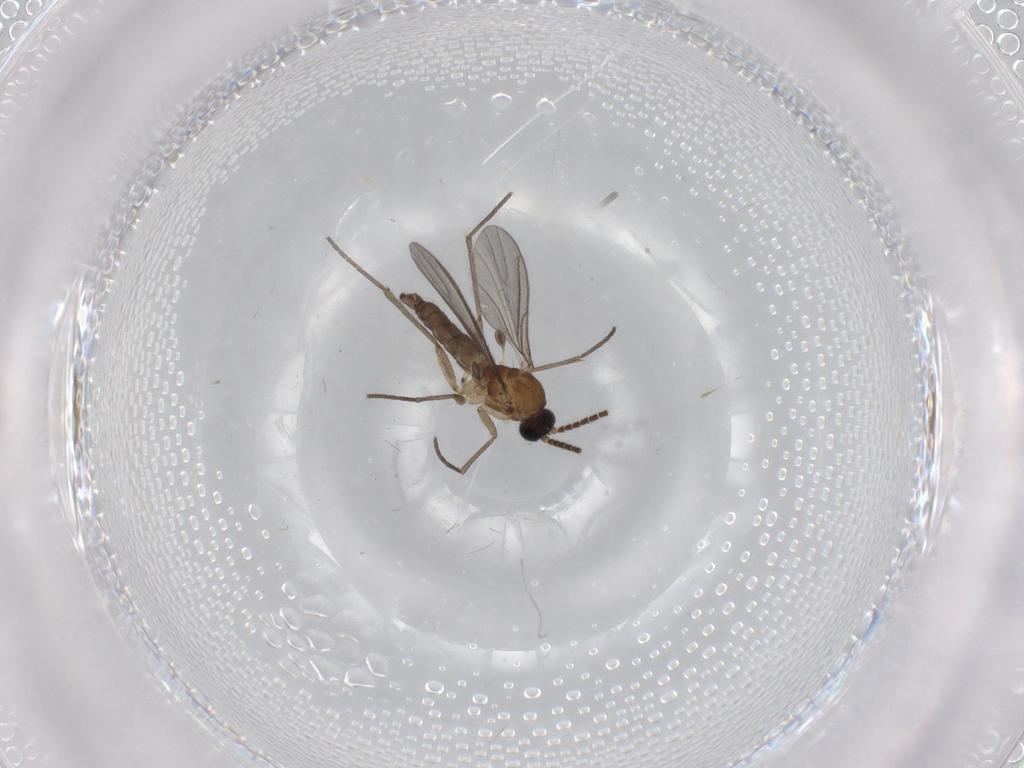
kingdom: Animalia
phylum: Arthropoda
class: Insecta
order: Diptera
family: Sciaridae
